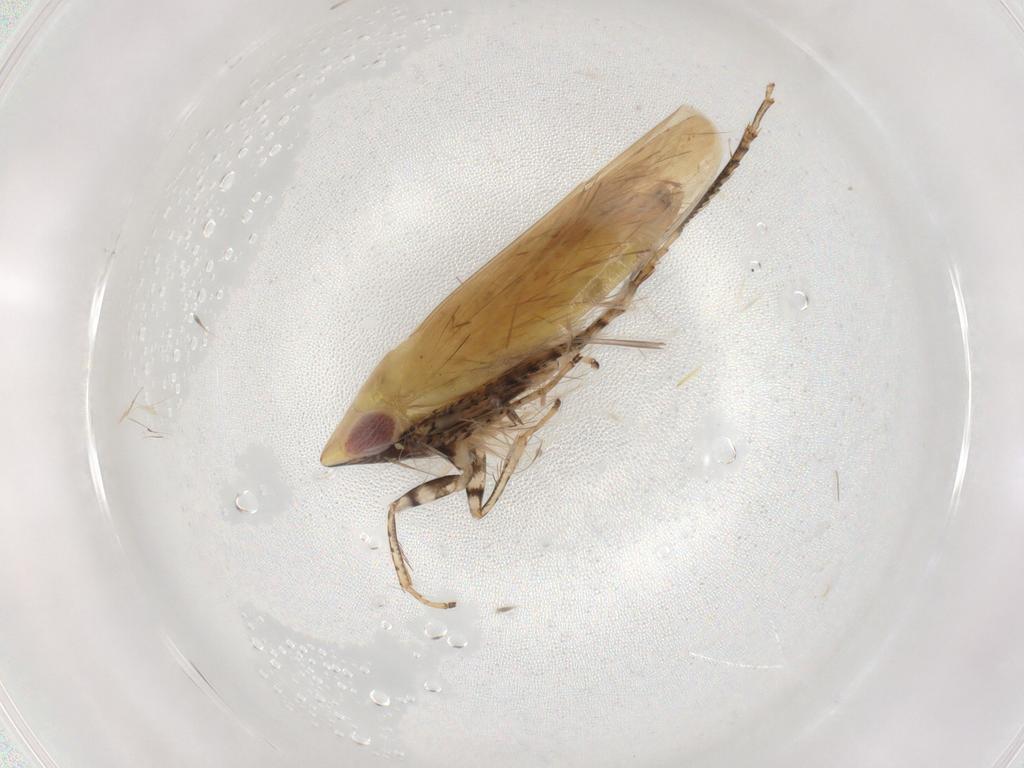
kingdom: Animalia
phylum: Arthropoda
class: Insecta
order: Hemiptera
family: Cicadellidae
